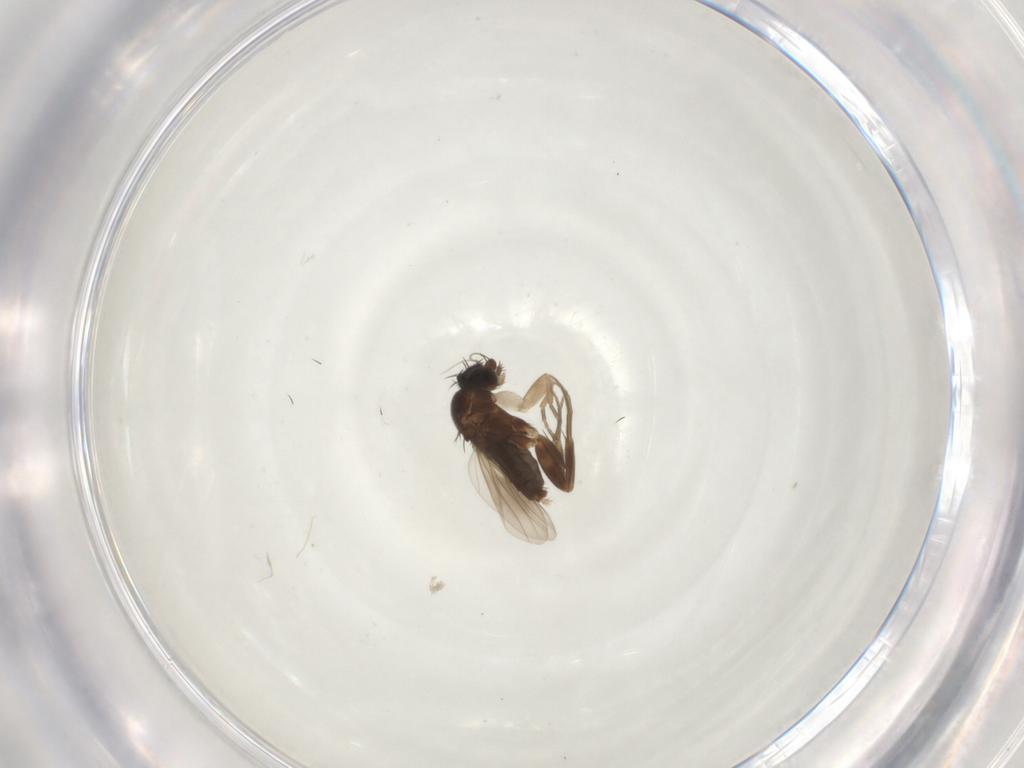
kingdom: Animalia
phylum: Arthropoda
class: Insecta
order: Diptera
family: Phoridae
